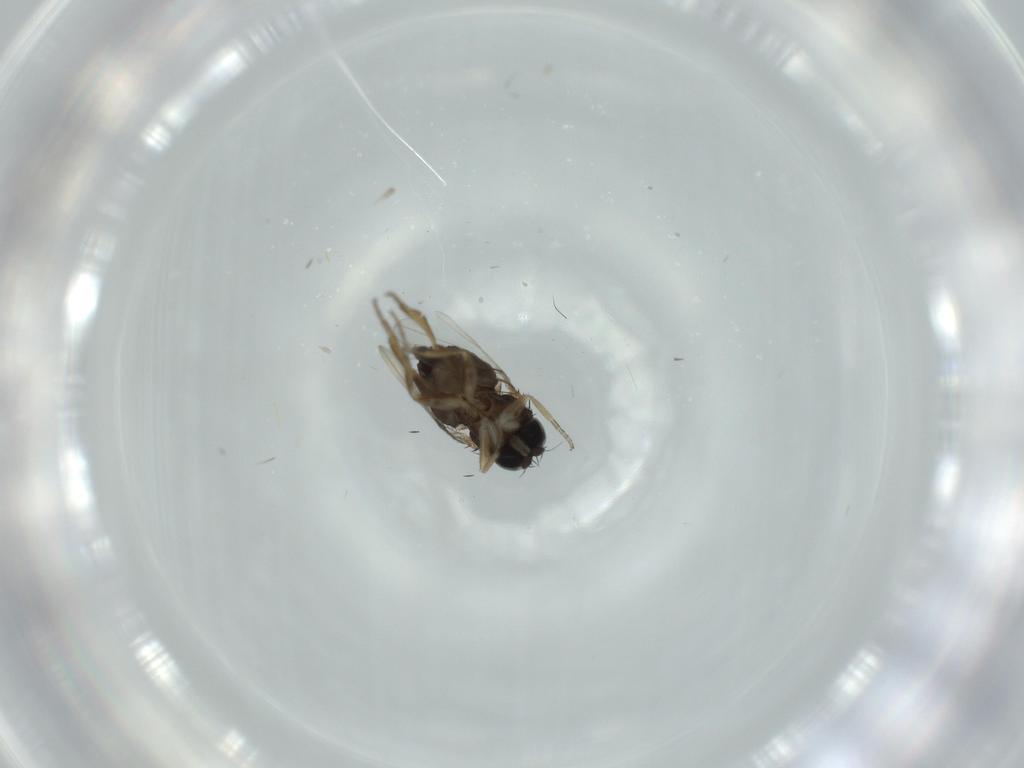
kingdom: Animalia
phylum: Arthropoda
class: Insecta
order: Diptera
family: Phoridae
